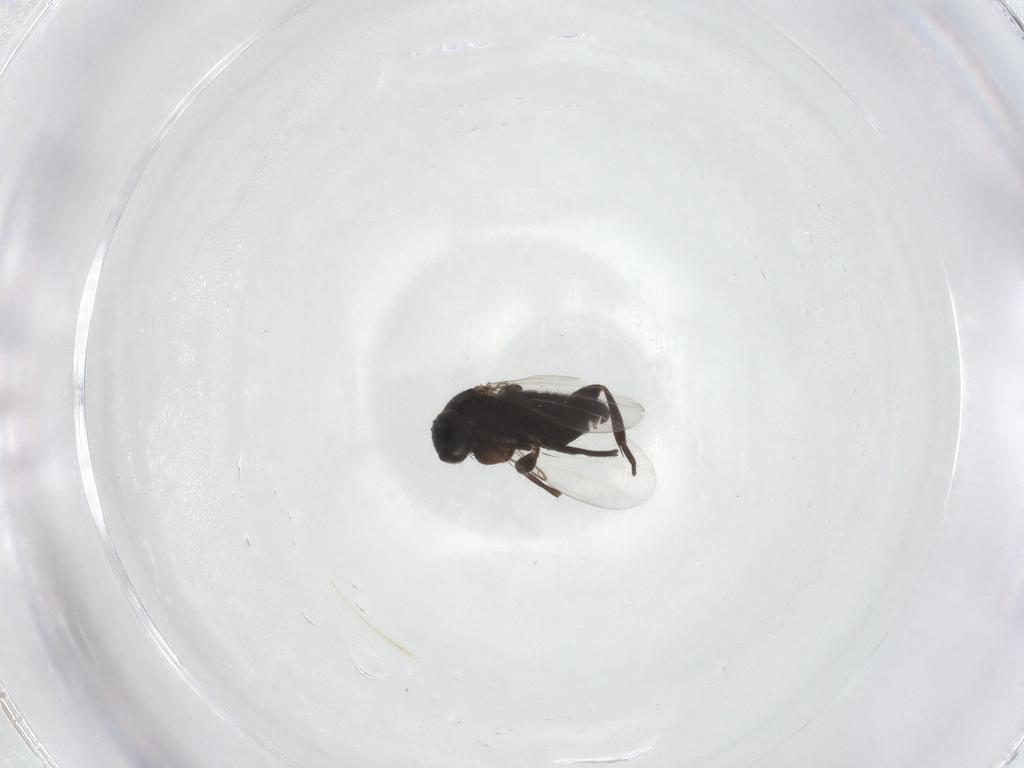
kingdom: Animalia
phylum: Arthropoda
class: Insecta
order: Diptera
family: Phoridae
